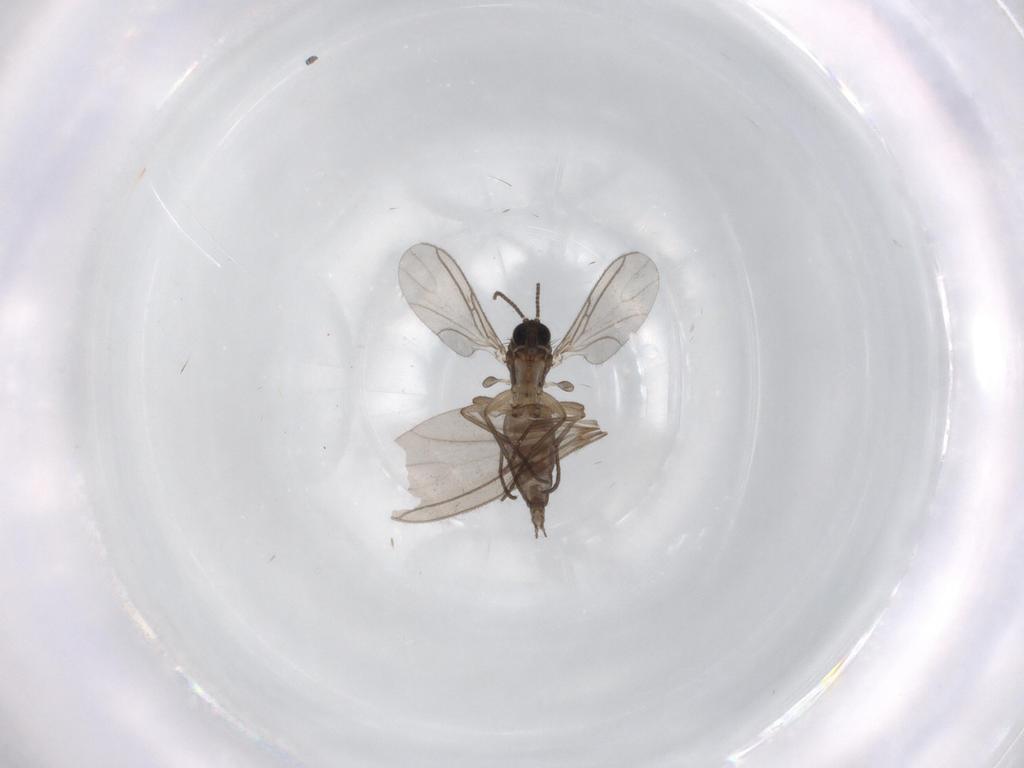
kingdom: Animalia
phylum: Arthropoda
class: Insecta
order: Diptera
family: Sciaridae
